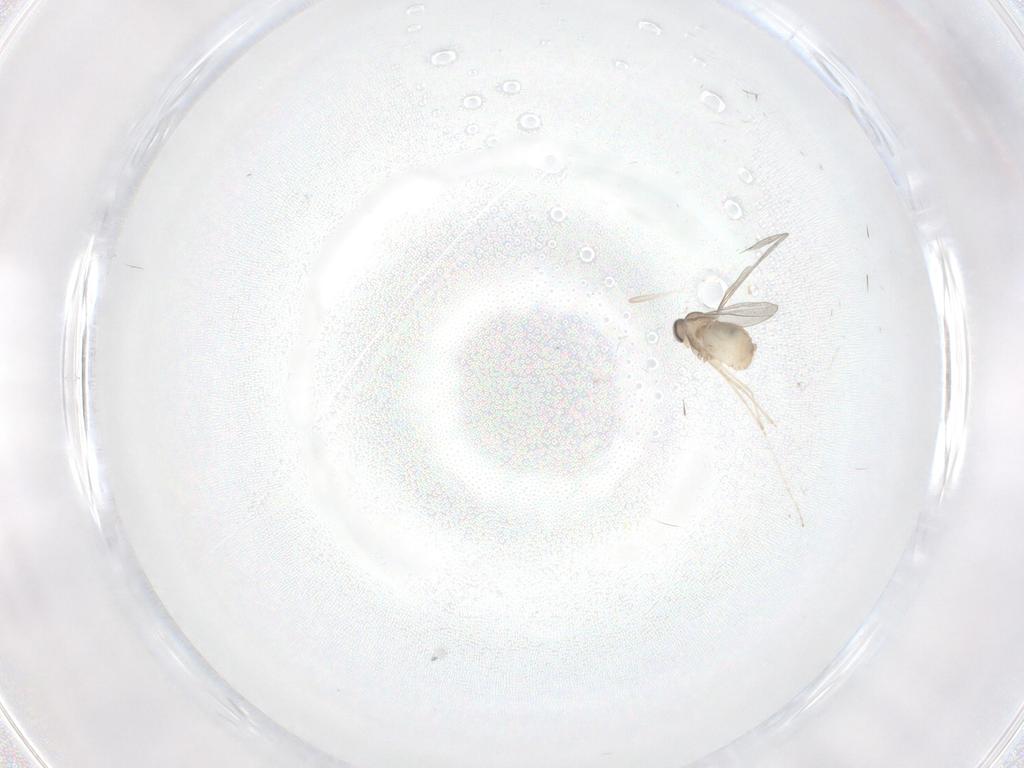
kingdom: Animalia
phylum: Arthropoda
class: Insecta
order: Diptera
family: Cecidomyiidae
